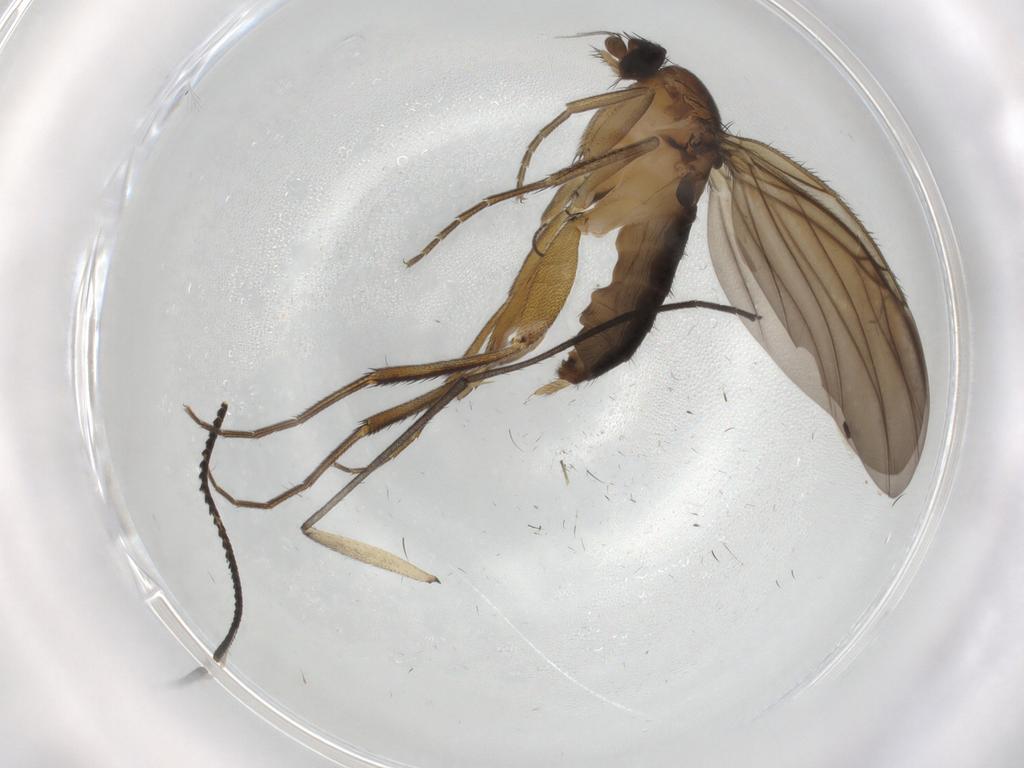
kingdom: Animalia
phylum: Arthropoda
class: Insecta
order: Diptera
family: Phoridae
